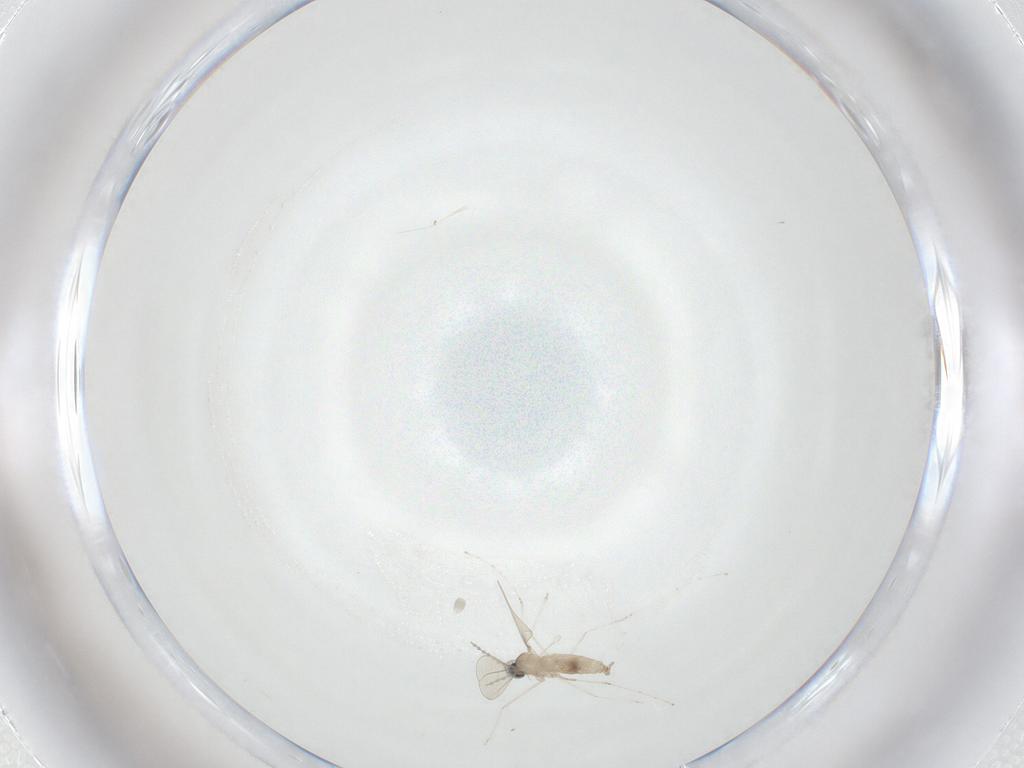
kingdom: Animalia
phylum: Arthropoda
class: Insecta
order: Diptera
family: Cecidomyiidae
